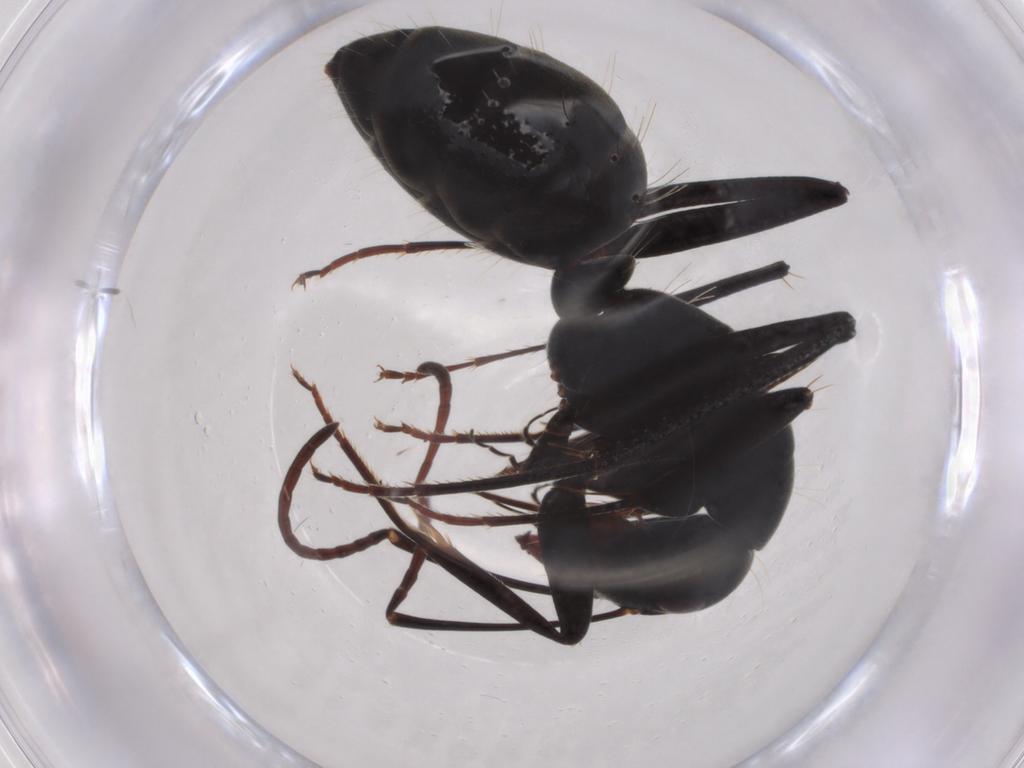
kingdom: Animalia
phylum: Arthropoda
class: Insecta
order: Hymenoptera
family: Formicidae
